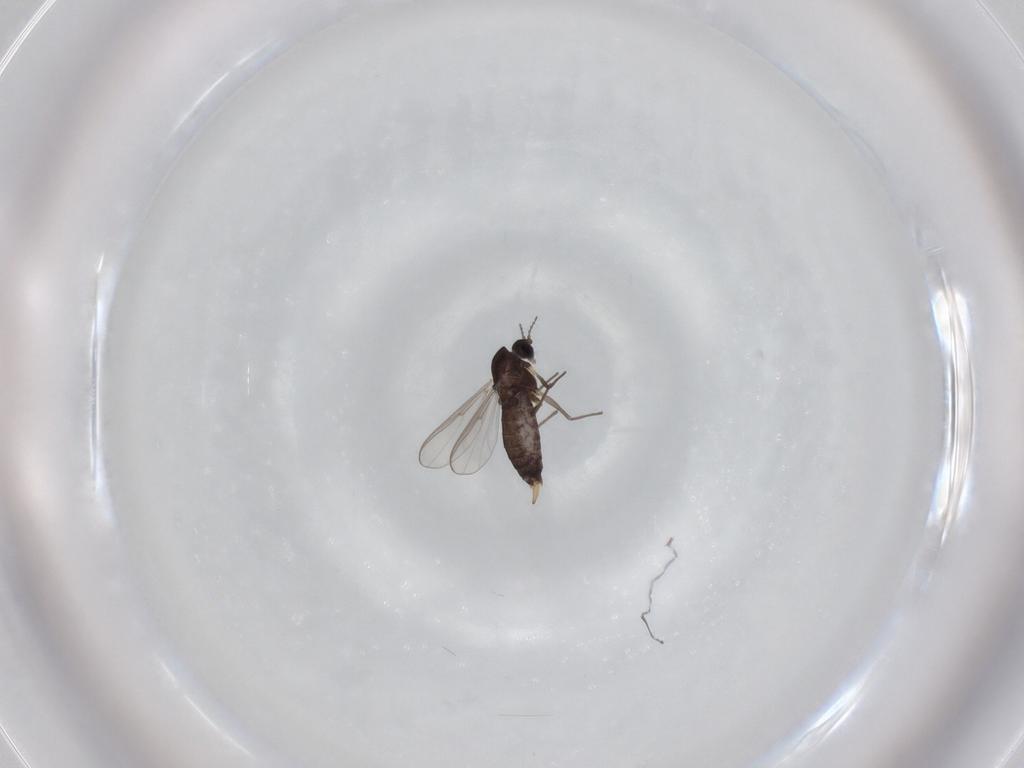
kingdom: Animalia
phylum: Arthropoda
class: Insecta
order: Diptera
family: Chironomidae
